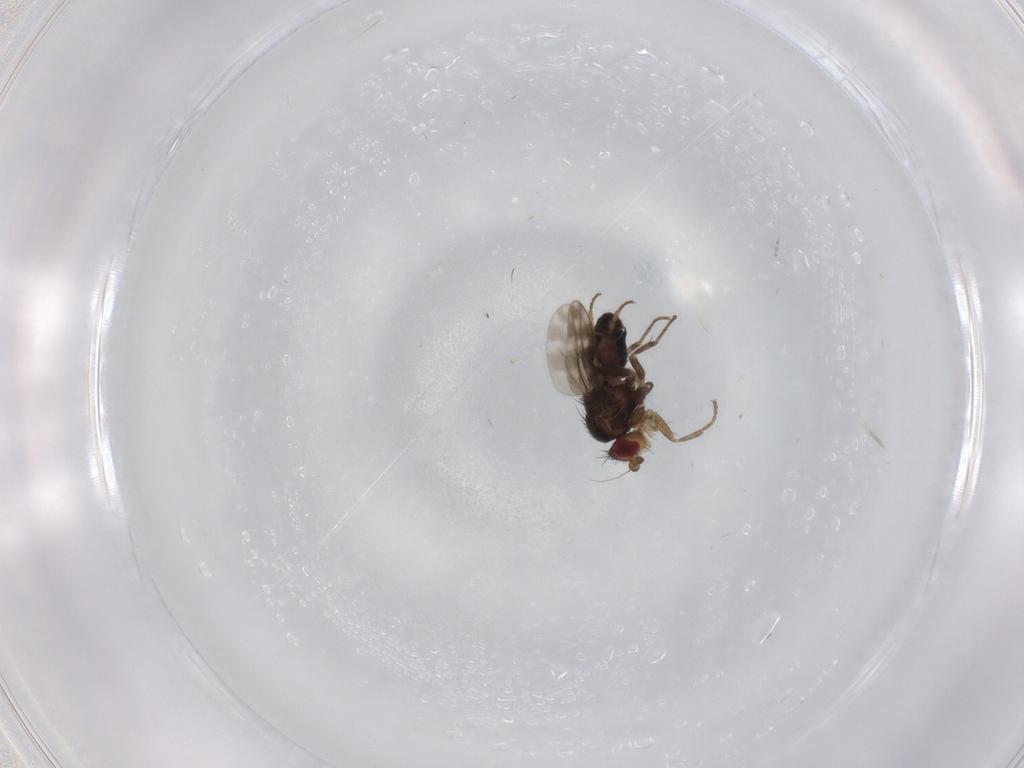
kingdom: Animalia
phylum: Arthropoda
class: Insecta
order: Diptera
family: Sphaeroceridae
